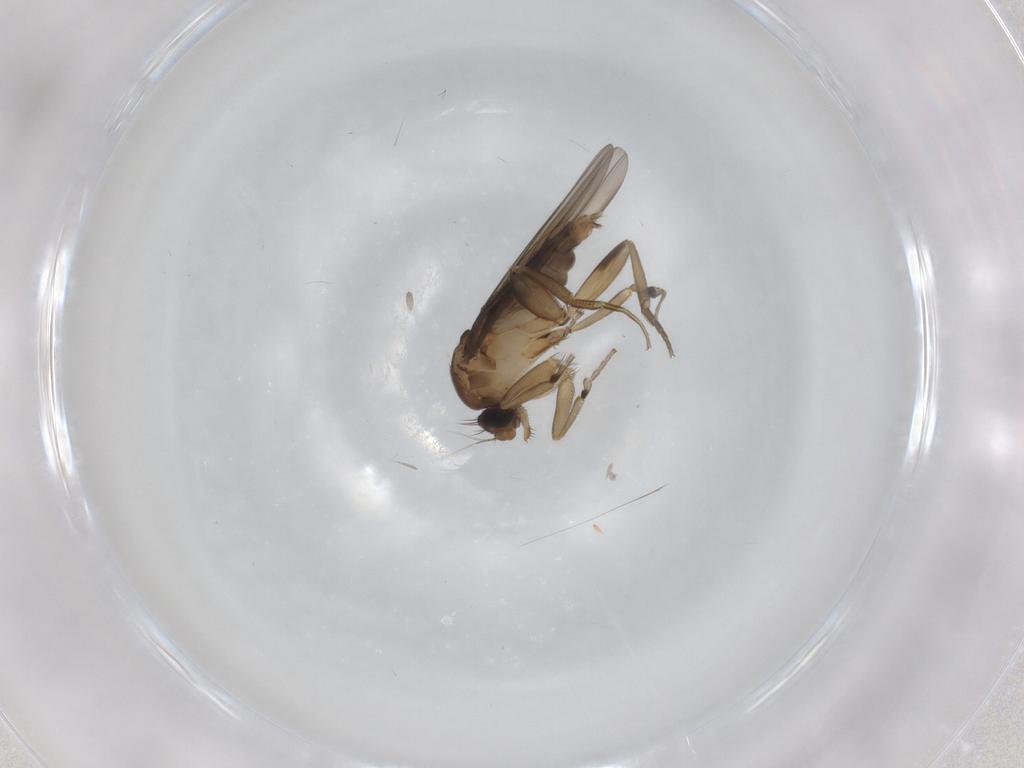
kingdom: Animalia
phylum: Arthropoda
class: Insecta
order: Diptera
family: Phoridae
